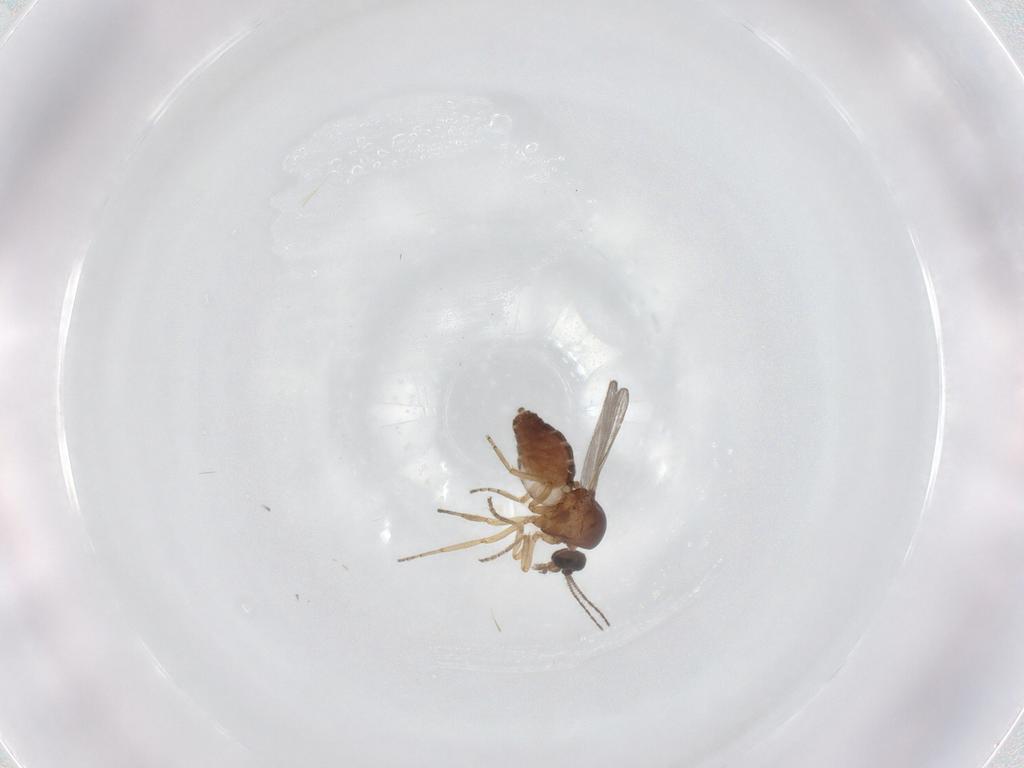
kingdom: Animalia
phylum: Arthropoda
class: Insecta
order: Diptera
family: Ceratopogonidae
